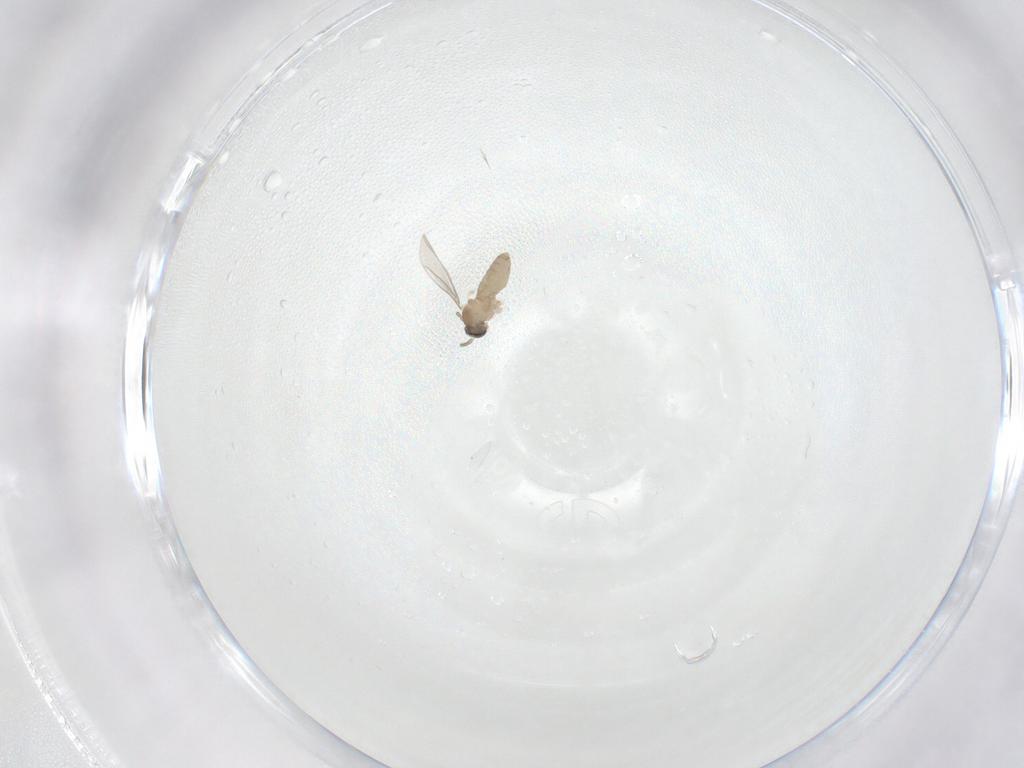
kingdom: Animalia
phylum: Arthropoda
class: Insecta
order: Diptera
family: Cecidomyiidae
